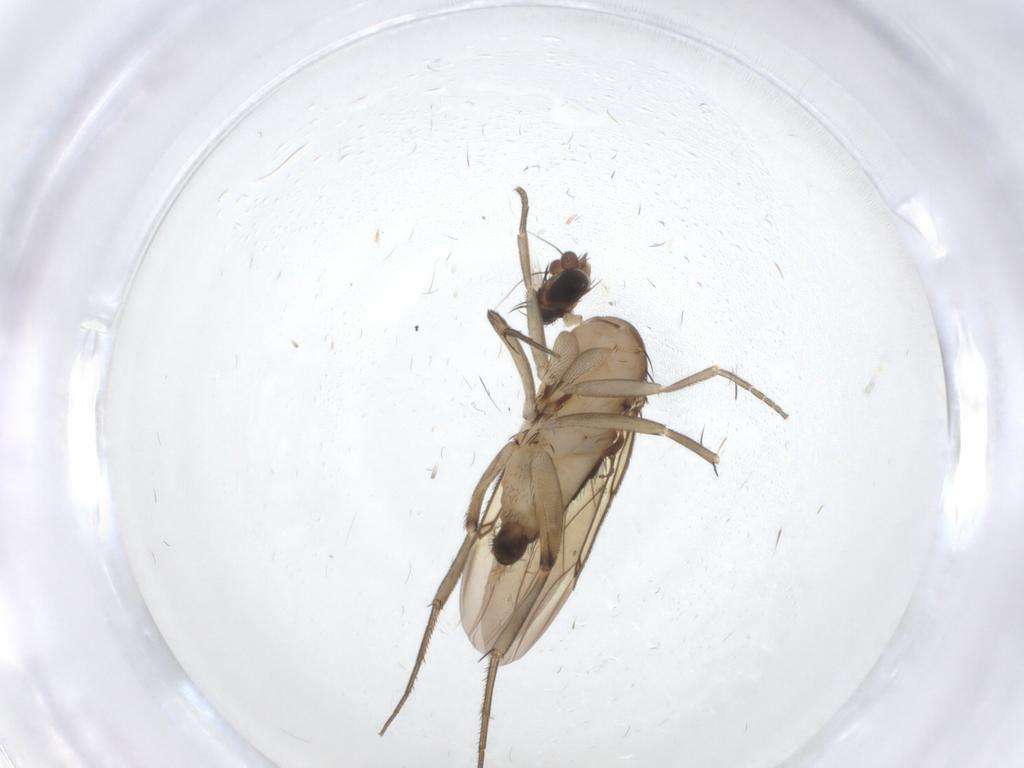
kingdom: Animalia
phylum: Arthropoda
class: Insecta
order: Diptera
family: Phoridae
